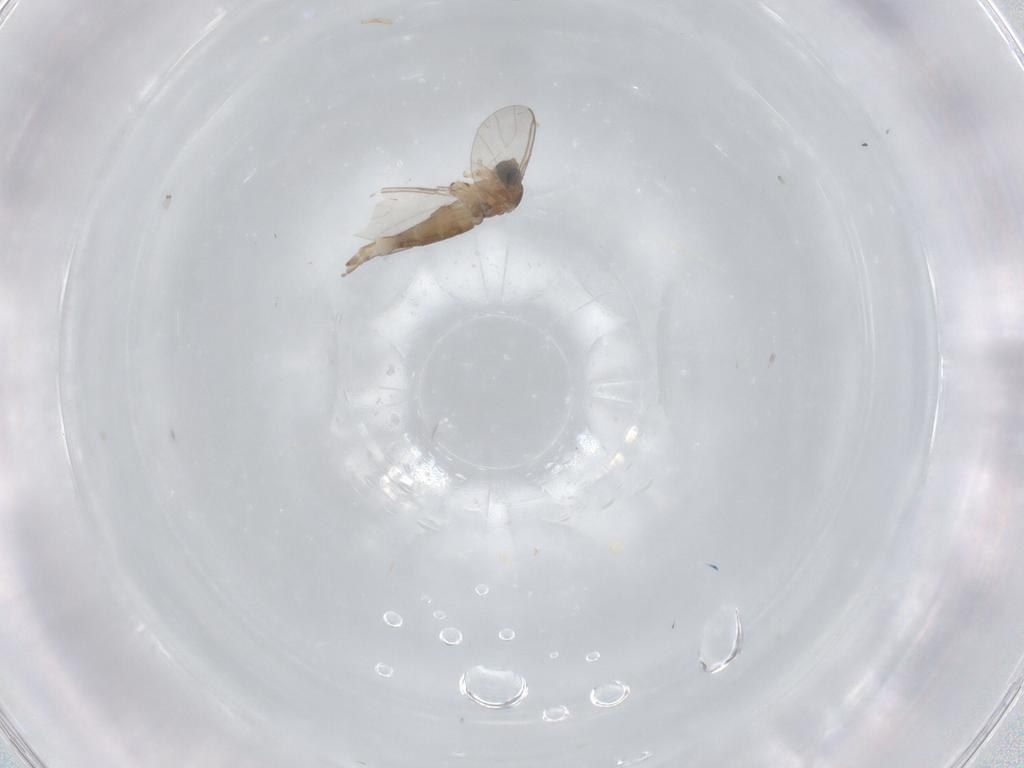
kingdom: Animalia
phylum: Arthropoda
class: Insecta
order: Diptera
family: Sciaridae
